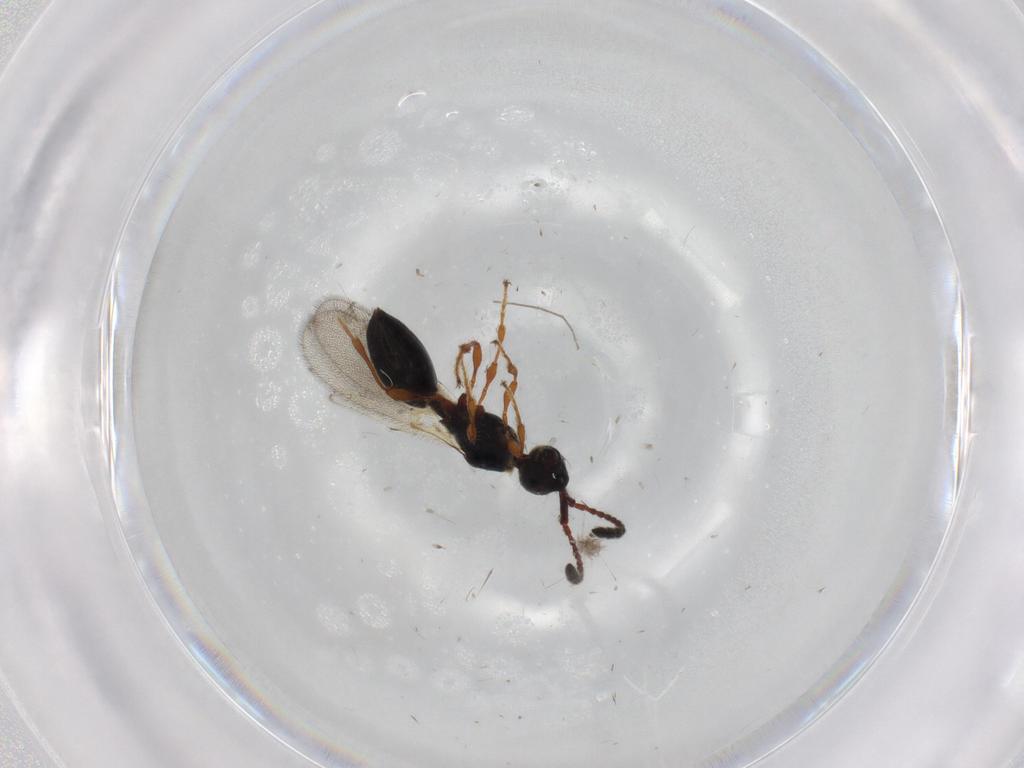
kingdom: Animalia
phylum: Arthropoda
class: Insecta
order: Hymenoptera
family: Diapriidae
